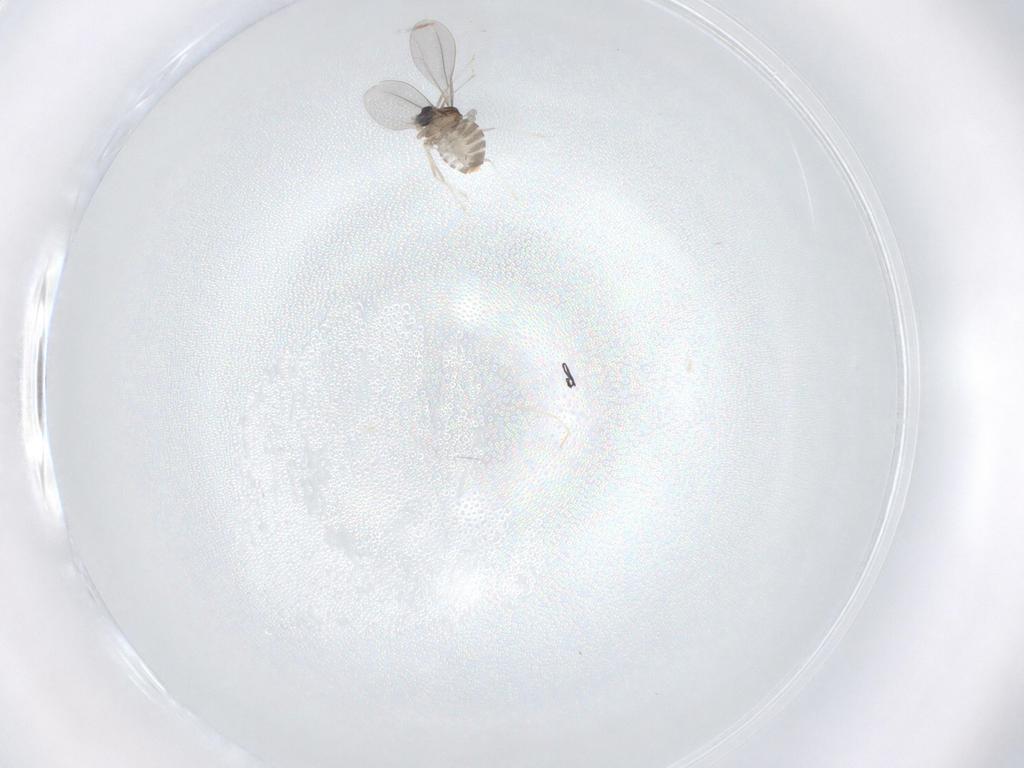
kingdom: Animalia
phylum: Arthropoda
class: Insecta
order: Diptera
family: Cecidomyiidae
